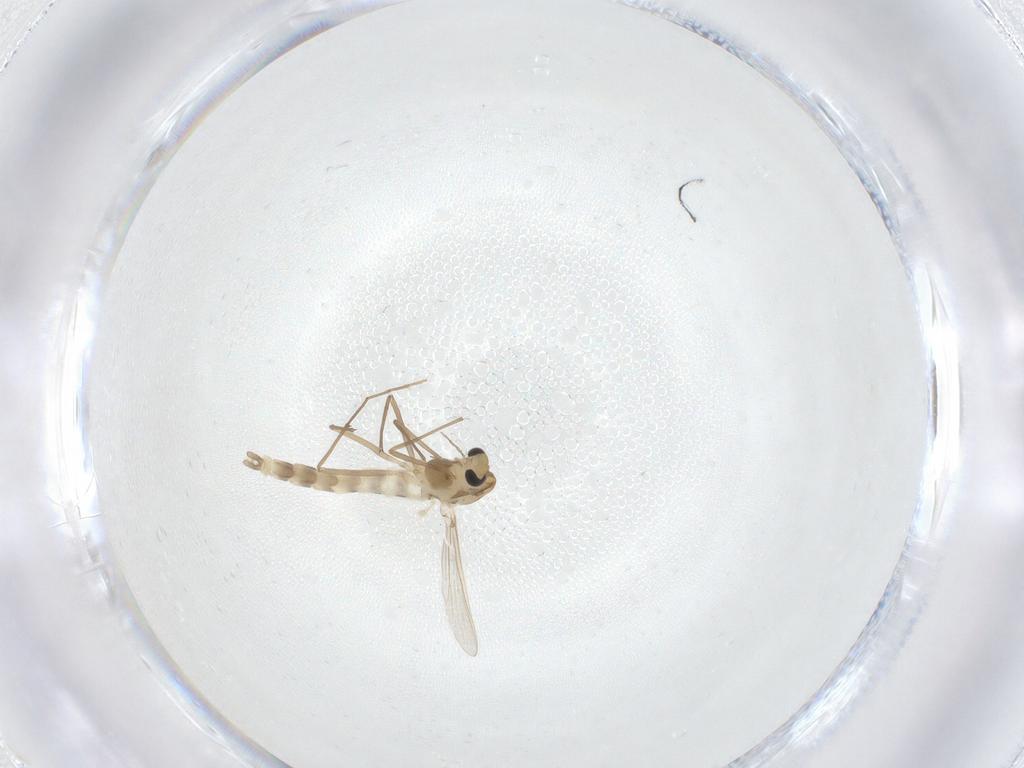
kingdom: Animalia
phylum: Arthropoda
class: Insecta
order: Diptera
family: Chironomidae
